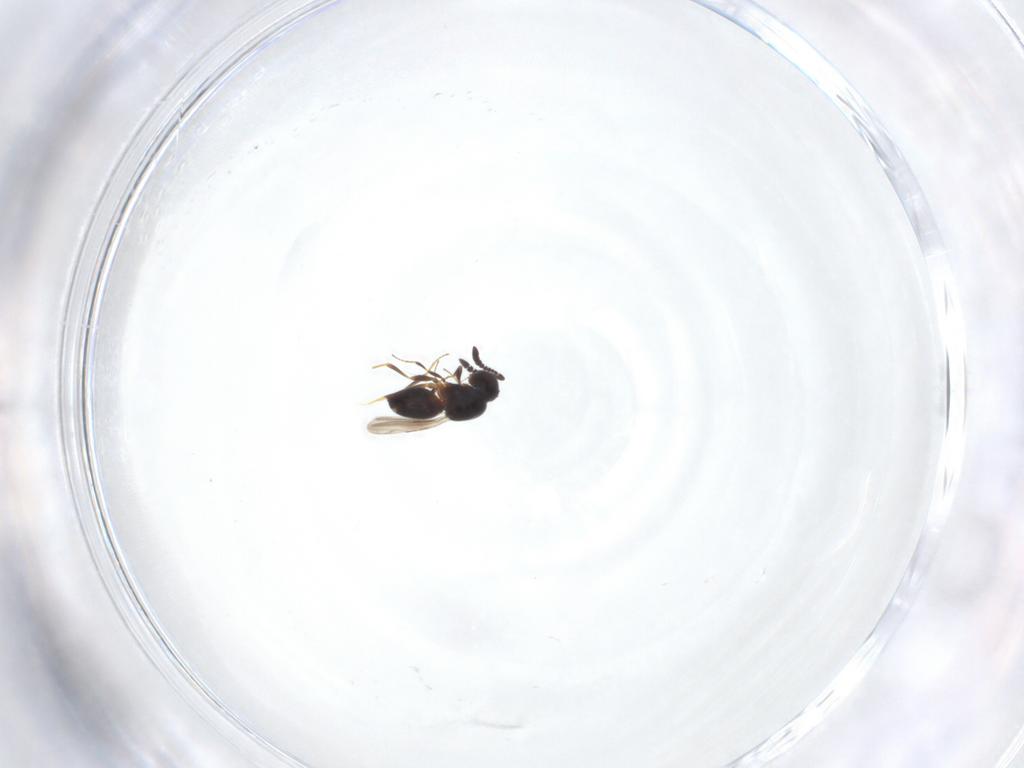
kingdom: Animalia
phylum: Arthropoda
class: Insecta
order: Hymenoptera
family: Ceraphronidae
